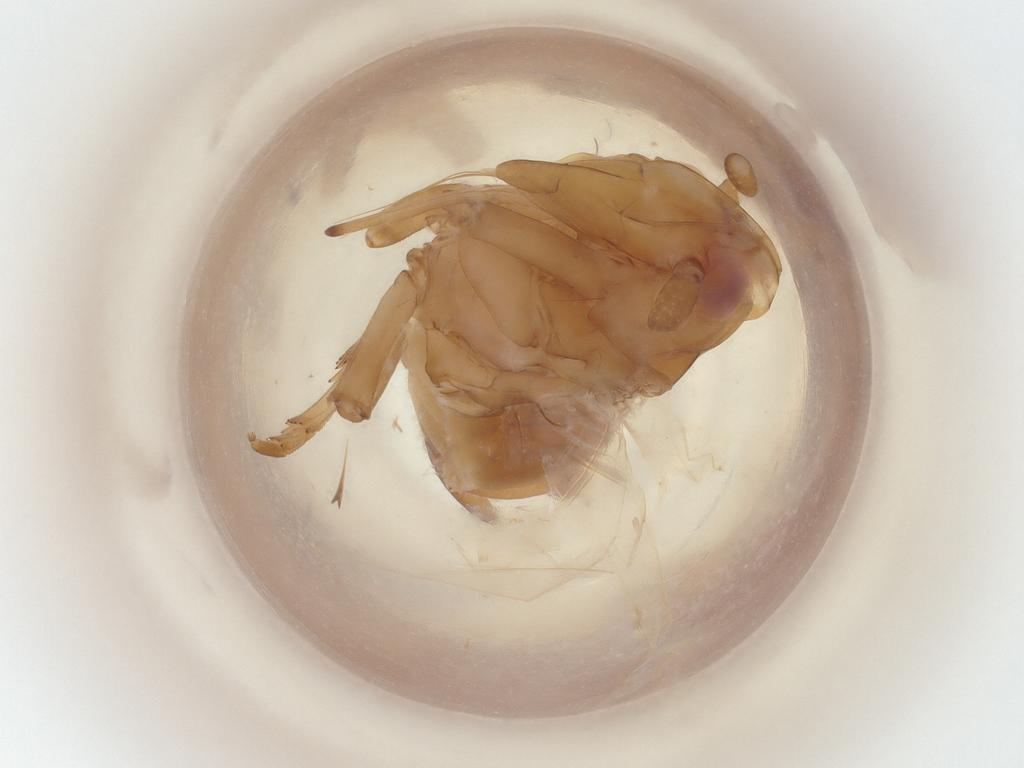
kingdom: Animalia
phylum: Arthropoda
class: Insecta
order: Hemiptera
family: Cixiidae
